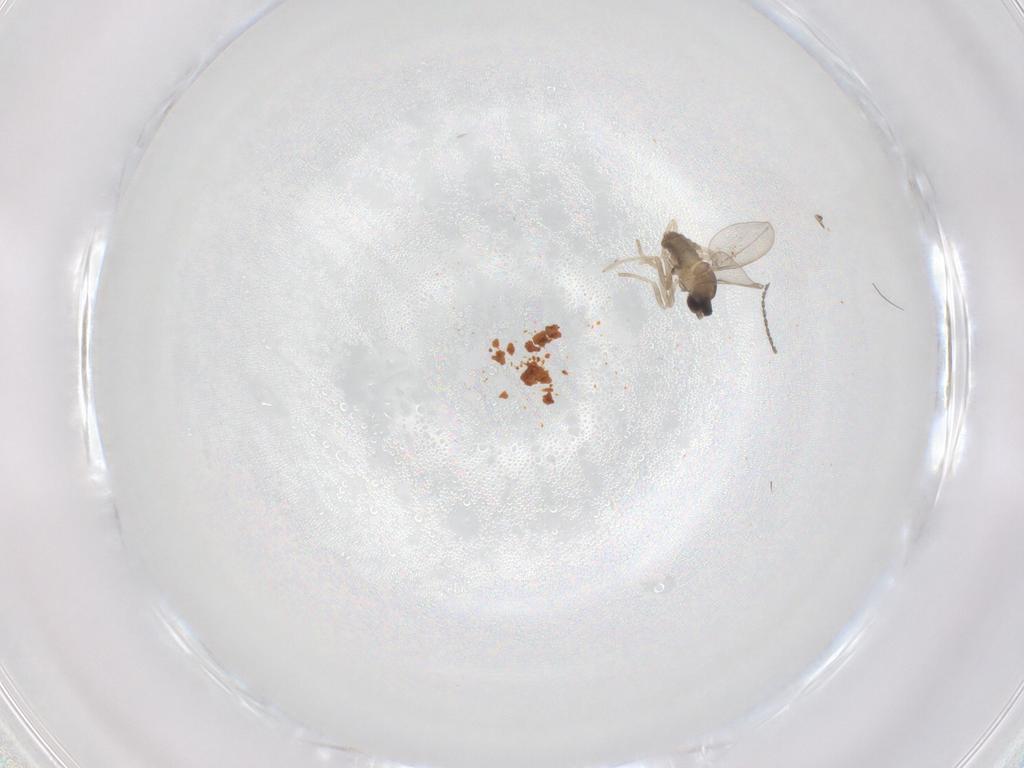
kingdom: Animalia
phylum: Arthropoda
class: Insecta
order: Diptera
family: Cecidomyiidae
